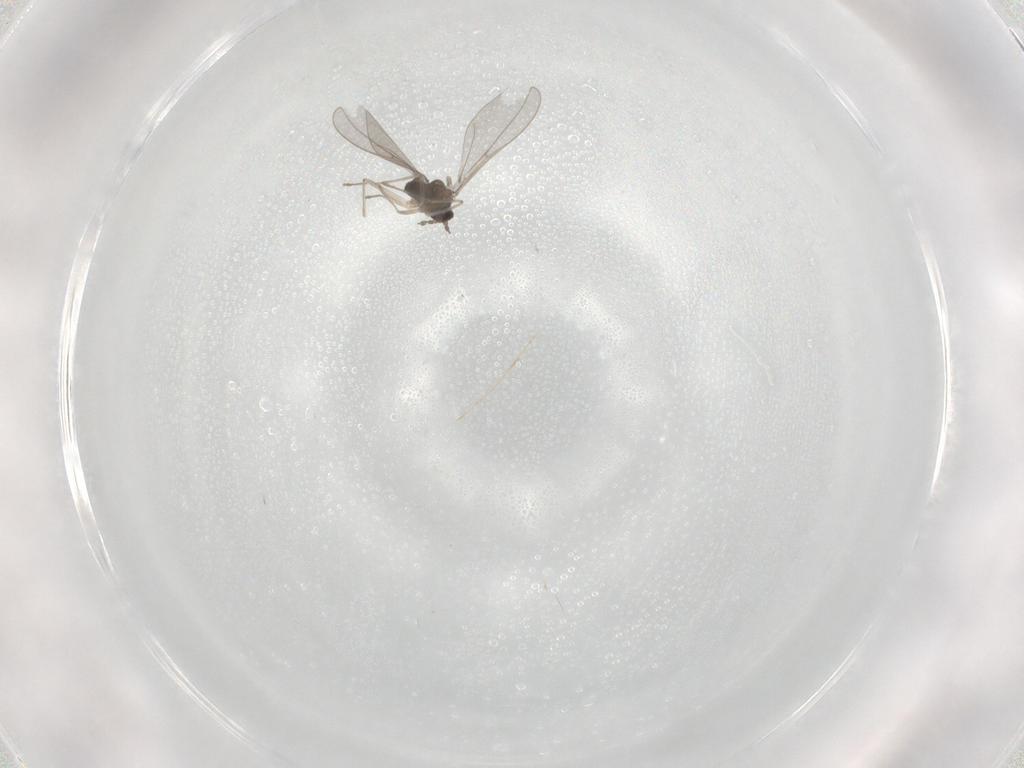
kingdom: Animalia
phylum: Arthropoda
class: Insecta
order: Diptera
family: Cecidomyiidae
